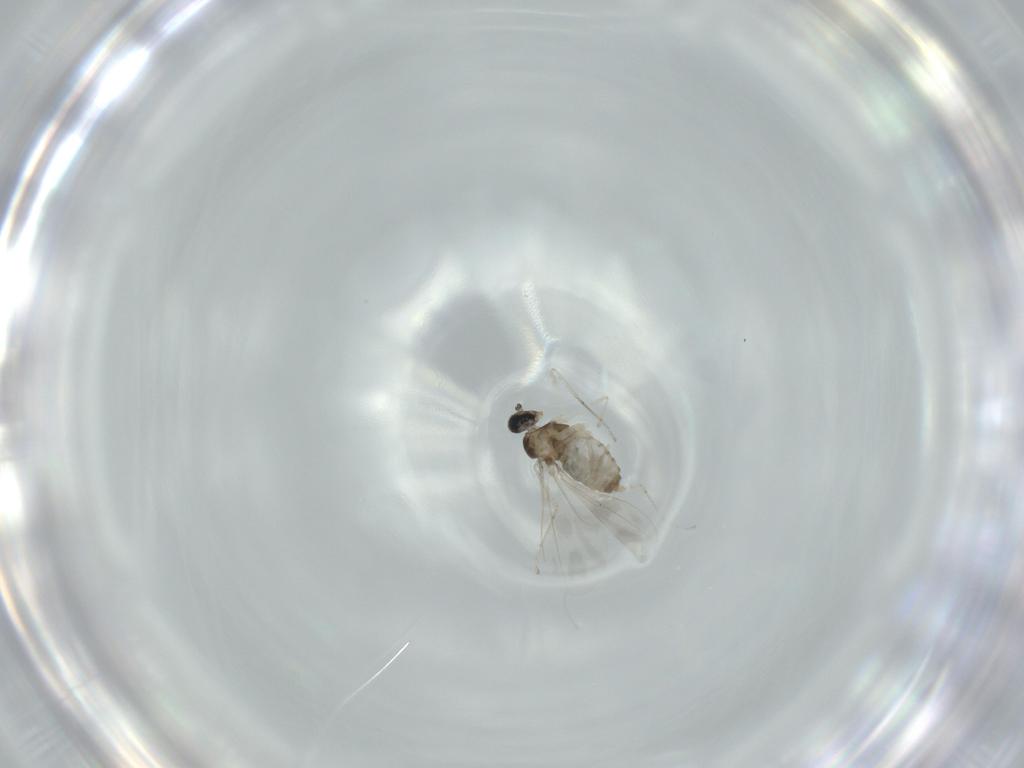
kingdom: Animalia
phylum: Arthropoda
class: Insecta
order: Diptera
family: Cecidomyiidae
